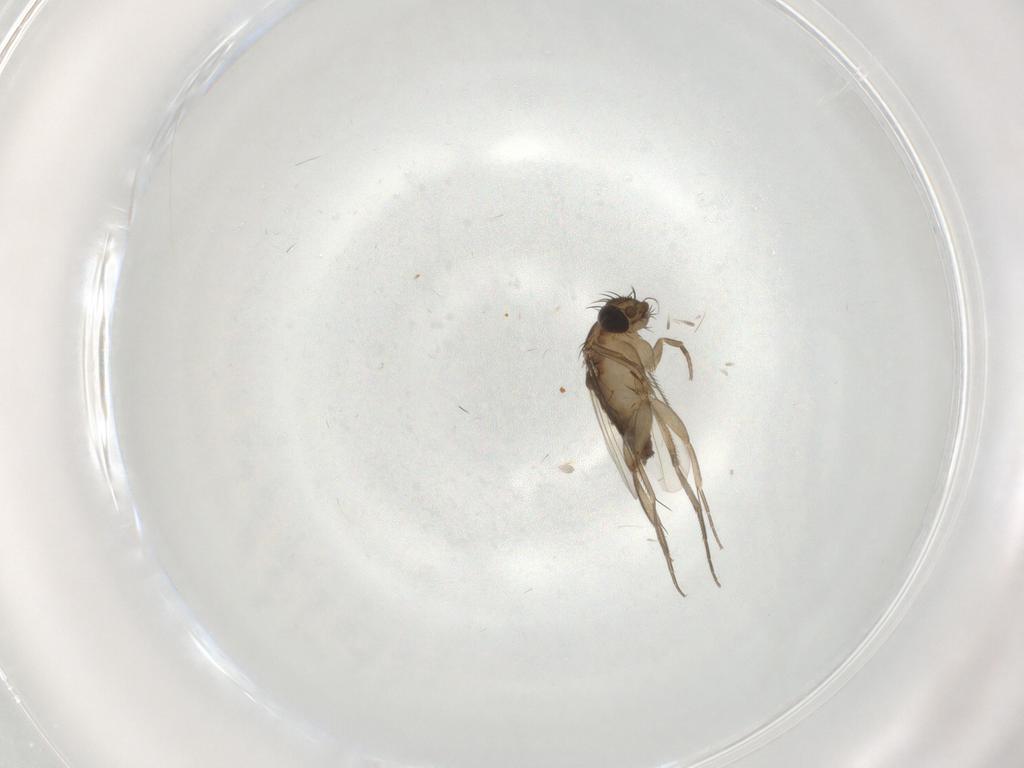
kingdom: Animalia
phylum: Arthropoda
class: Insecta
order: Diptera
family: Phoridae
